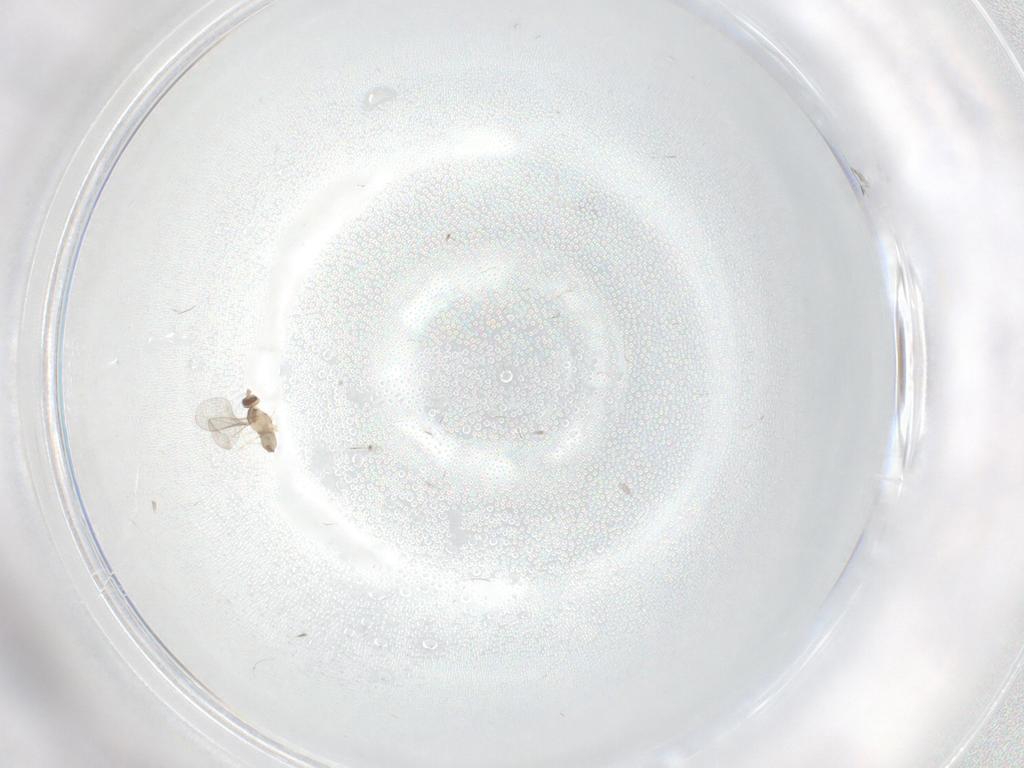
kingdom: Animalia
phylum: Arthropoda
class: Insecta
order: Diptera
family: Cecidomyiidae
